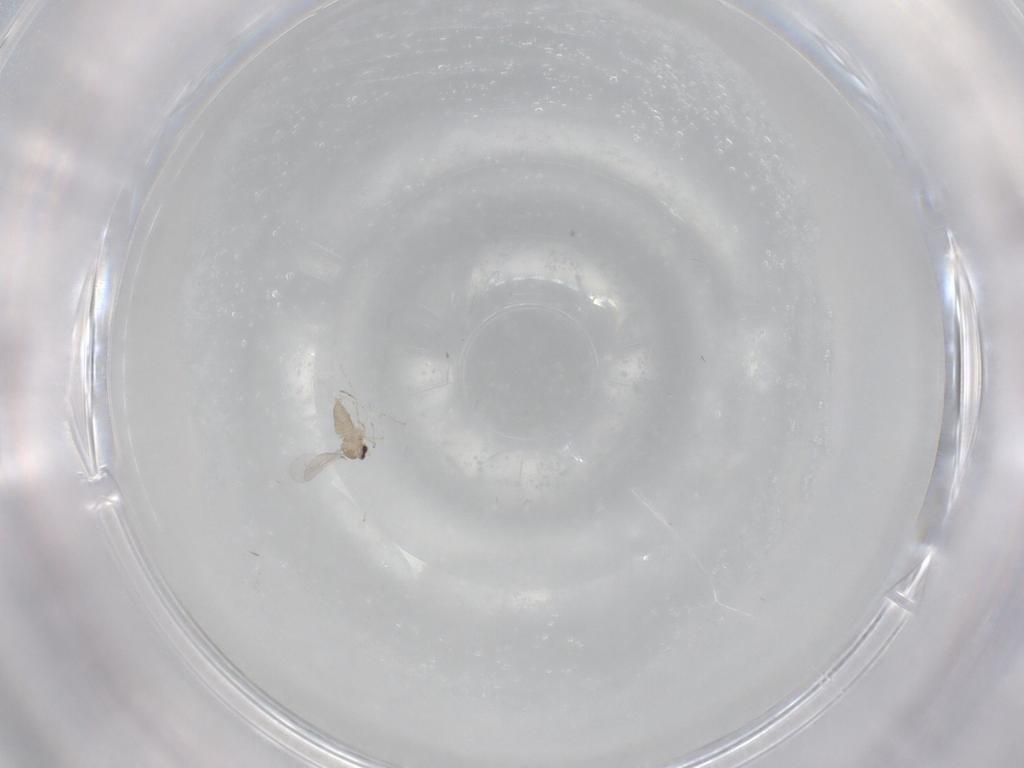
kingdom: Animalia
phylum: Arthropoda
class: Insecta
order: Diptera
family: Cecidomyiidae
